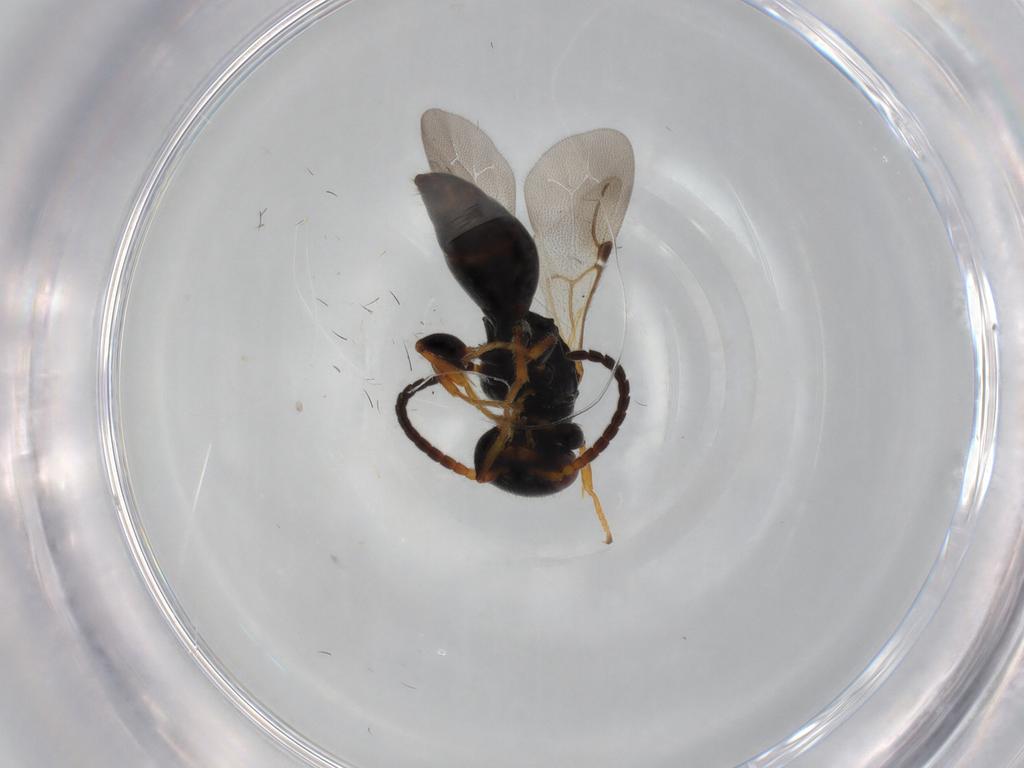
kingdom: Animalia
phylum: Arthropoda
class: Insecta
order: Hymenoptera
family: Bethylidae
